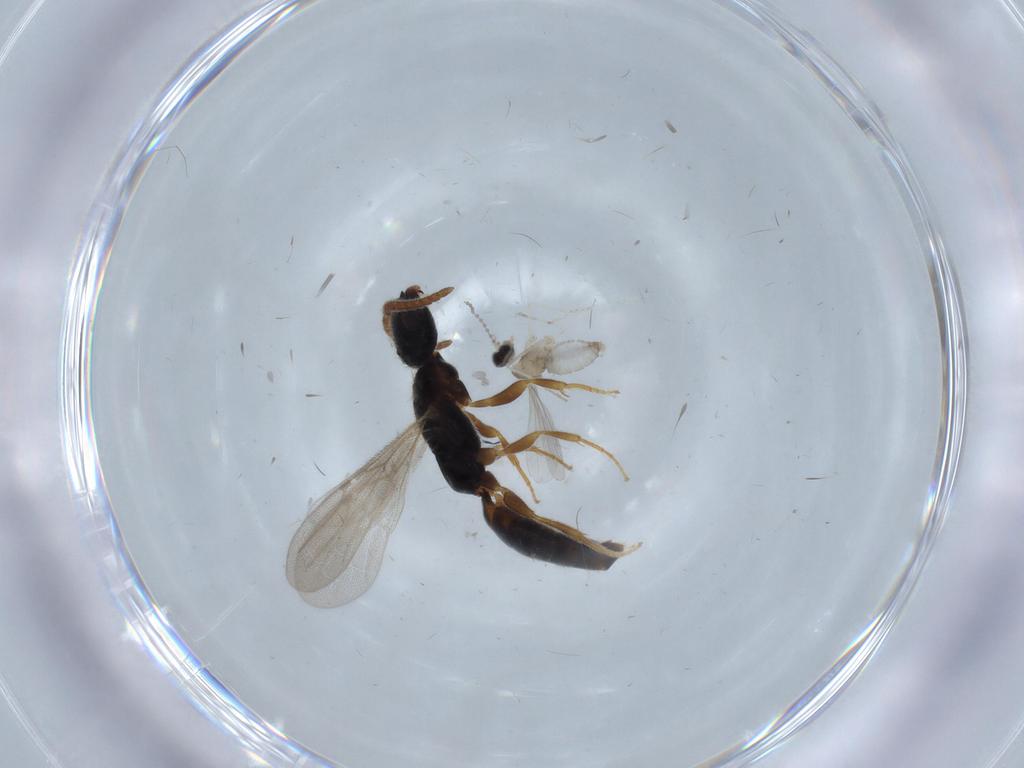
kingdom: Animalia
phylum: Arthropoda
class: Insecta
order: Diptera
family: Cecidomyiidae
